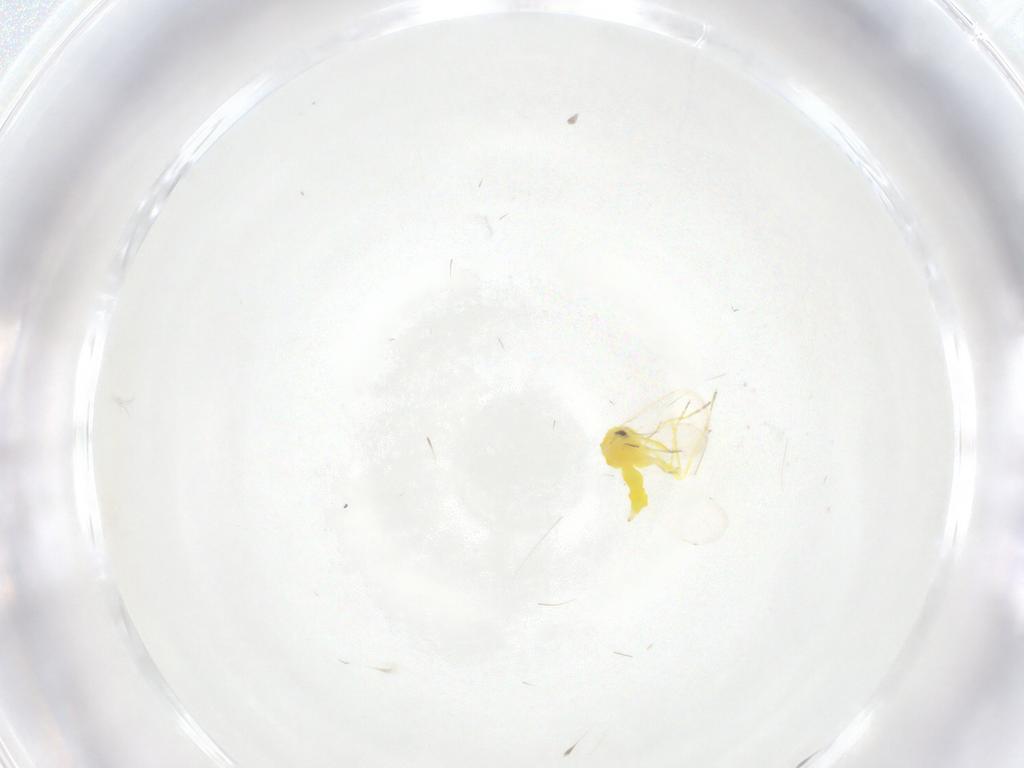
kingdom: Animalia
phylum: Arthropoda
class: Insecta
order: Hemiptera
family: Aleyrodidae
